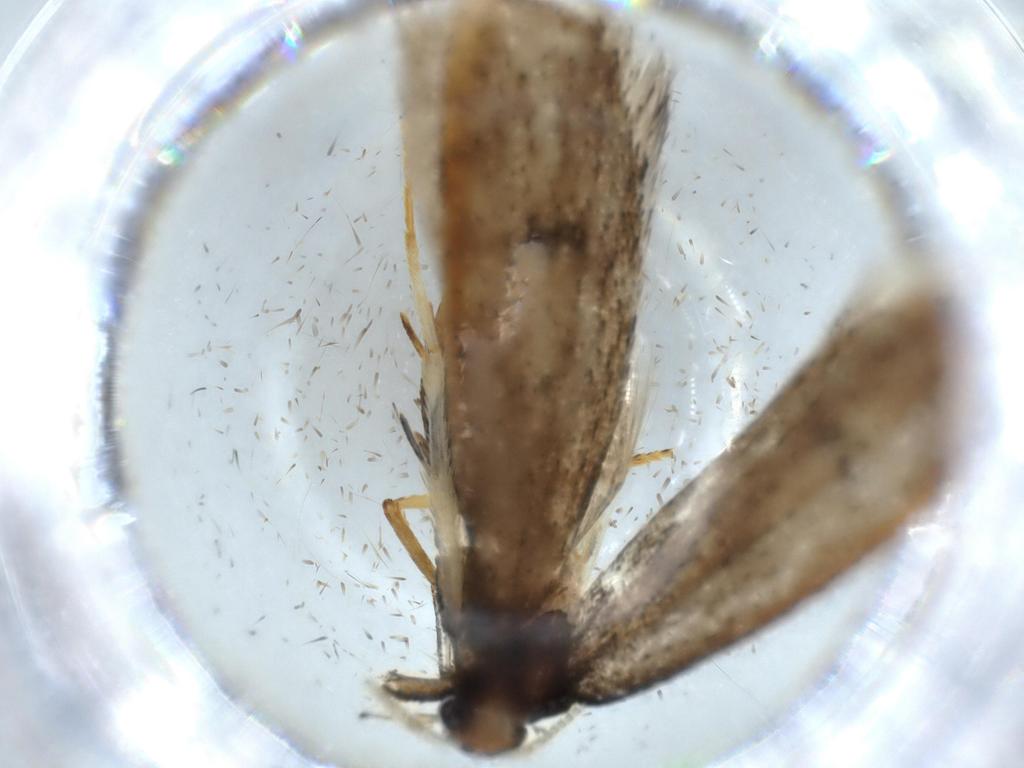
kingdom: Animalia
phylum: Arthropoda
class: Insecta
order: Lepidoptera
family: Lecithoceridae
